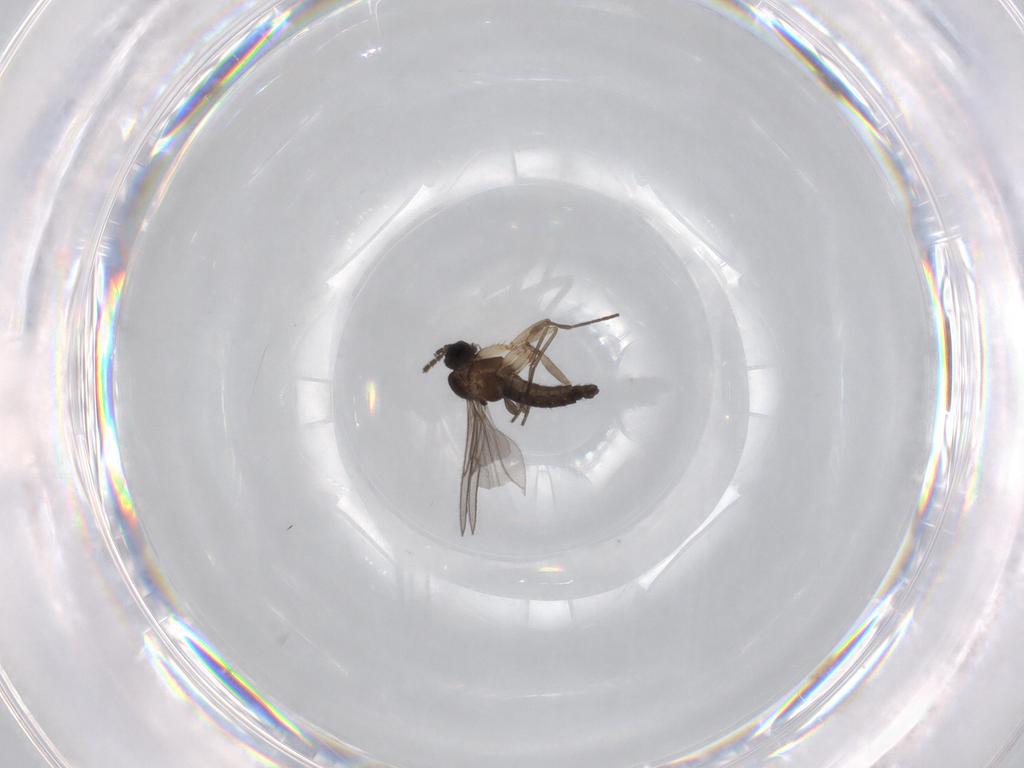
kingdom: Animalia
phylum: Arthropoda
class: Insecta
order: Diptera
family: Sciaridae
